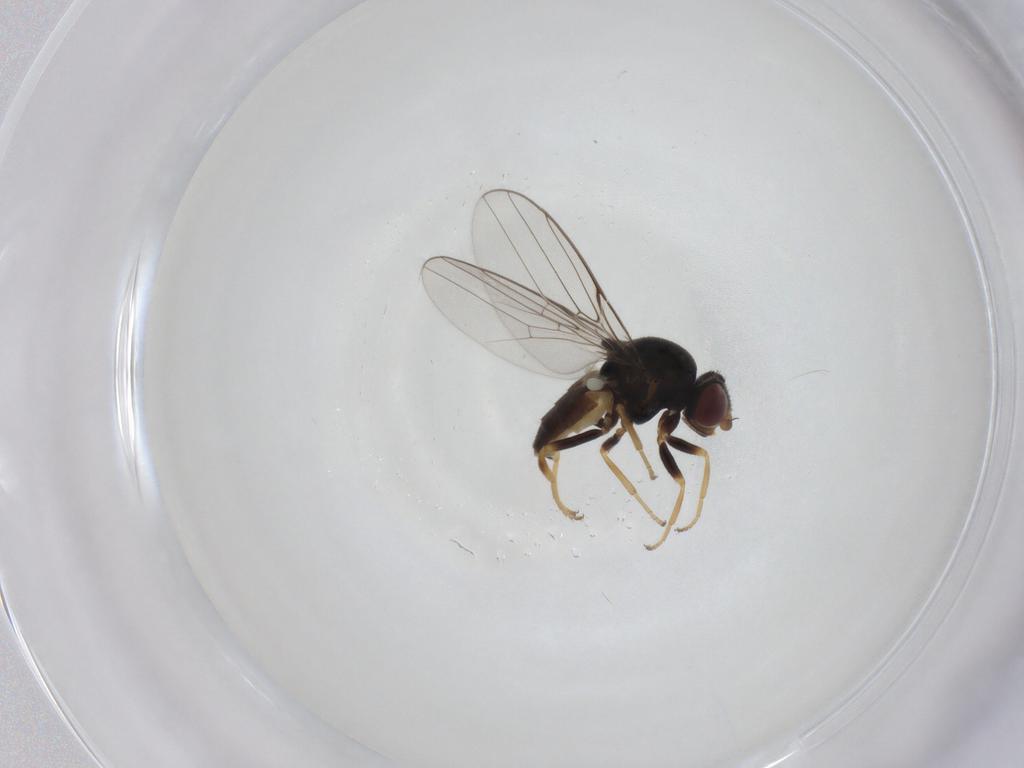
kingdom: Animalia
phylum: Arthropoda
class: Insecta
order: Diptera
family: Chloropidae
